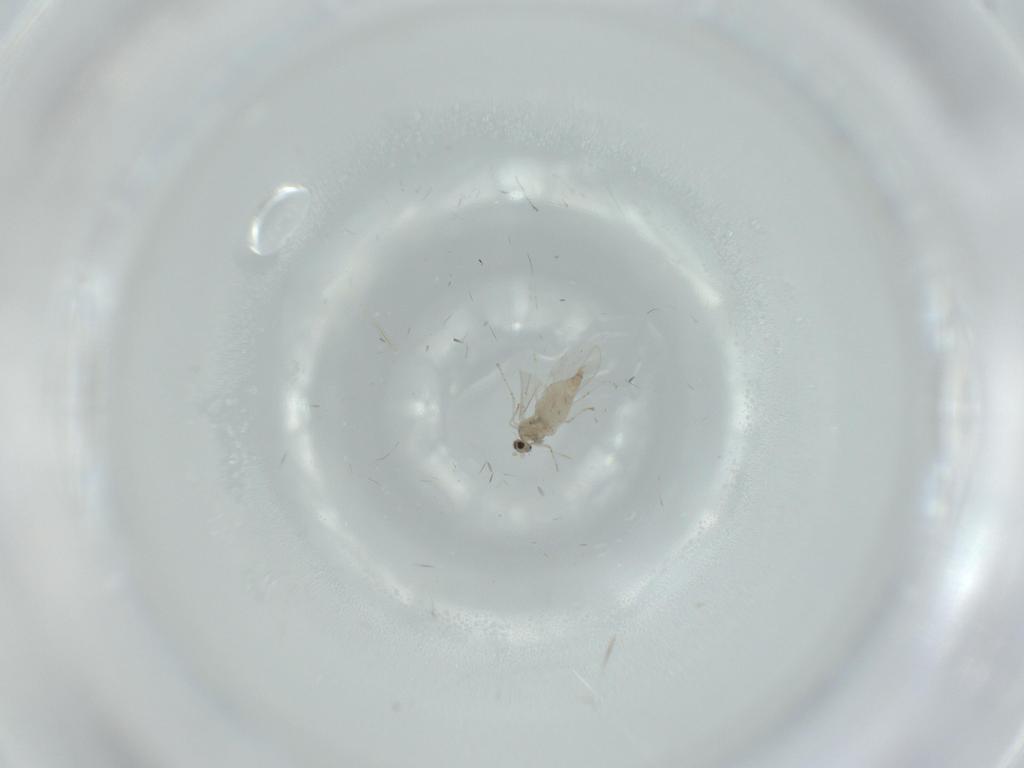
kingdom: Animalia
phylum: Arthropoda
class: Insecta
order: Diptera
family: Cecidomyiidae
